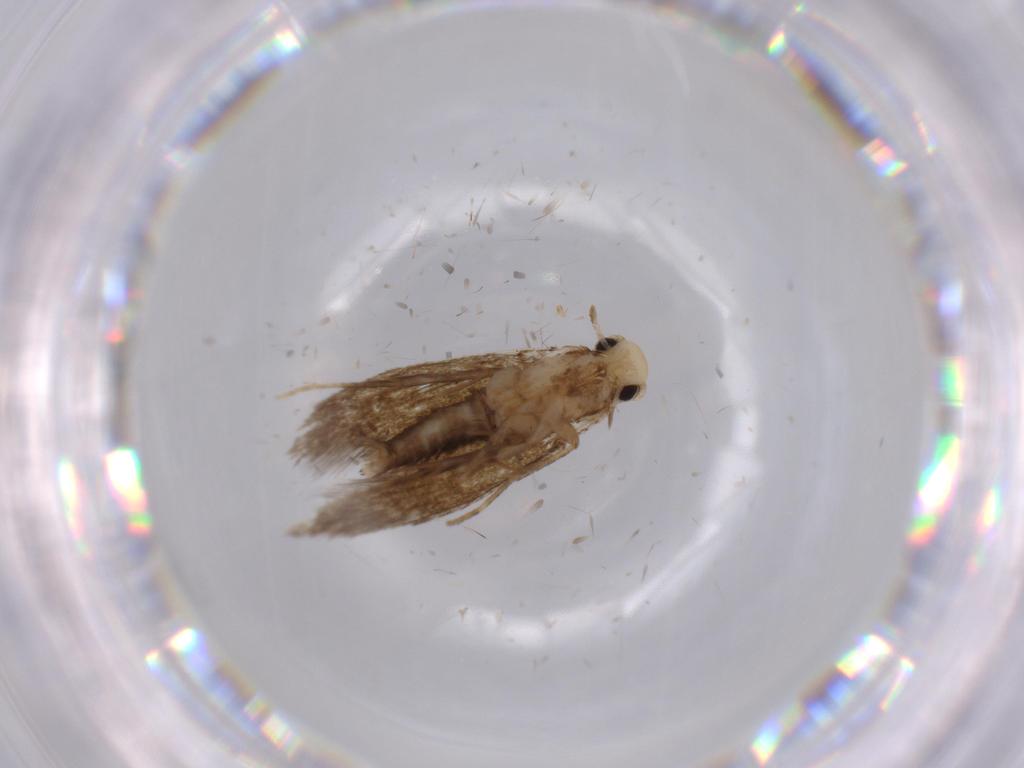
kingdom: Animalia
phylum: Arthropoda
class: Insecta
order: Lepidoptera
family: Tineidae
